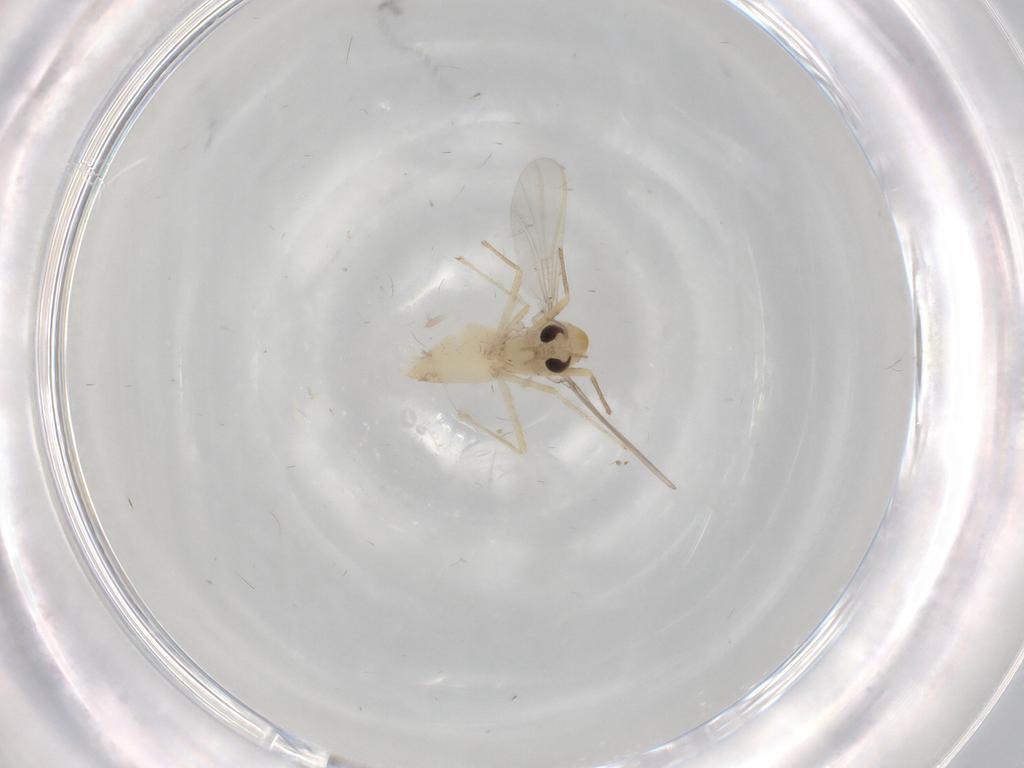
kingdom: Animalia
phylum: Arthropoda
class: Insecta
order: Diptera
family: Chironomidae
